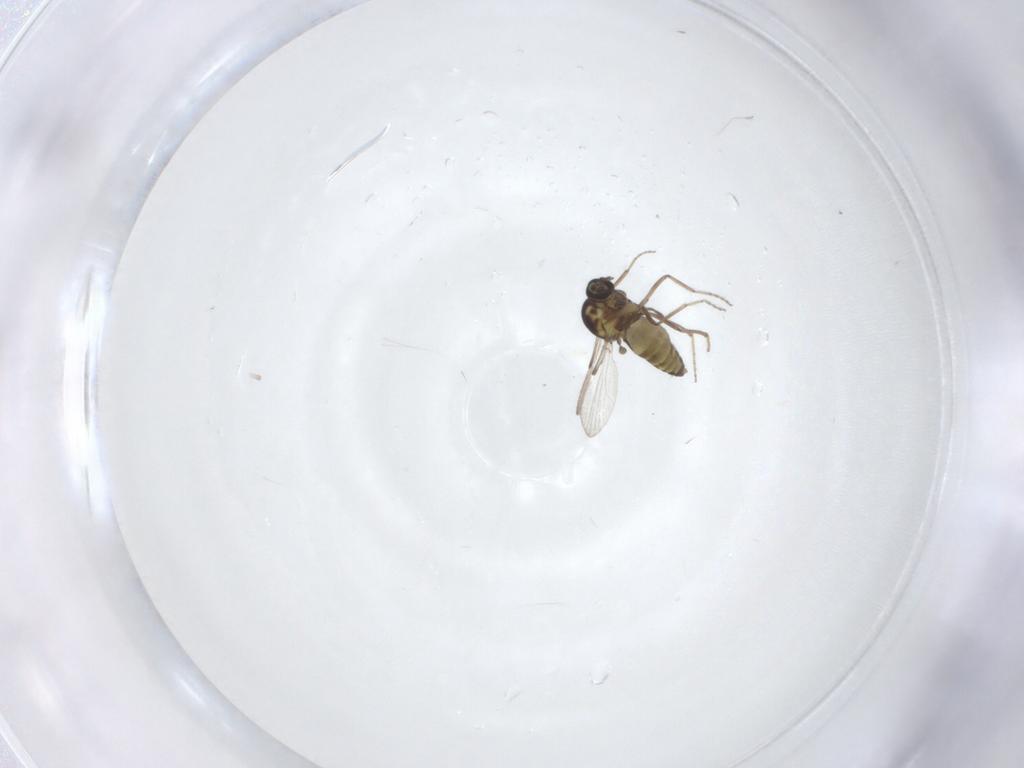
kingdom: Animalia
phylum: Arthropoda
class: Insecta
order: Diptera
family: Ceratopogonidae
